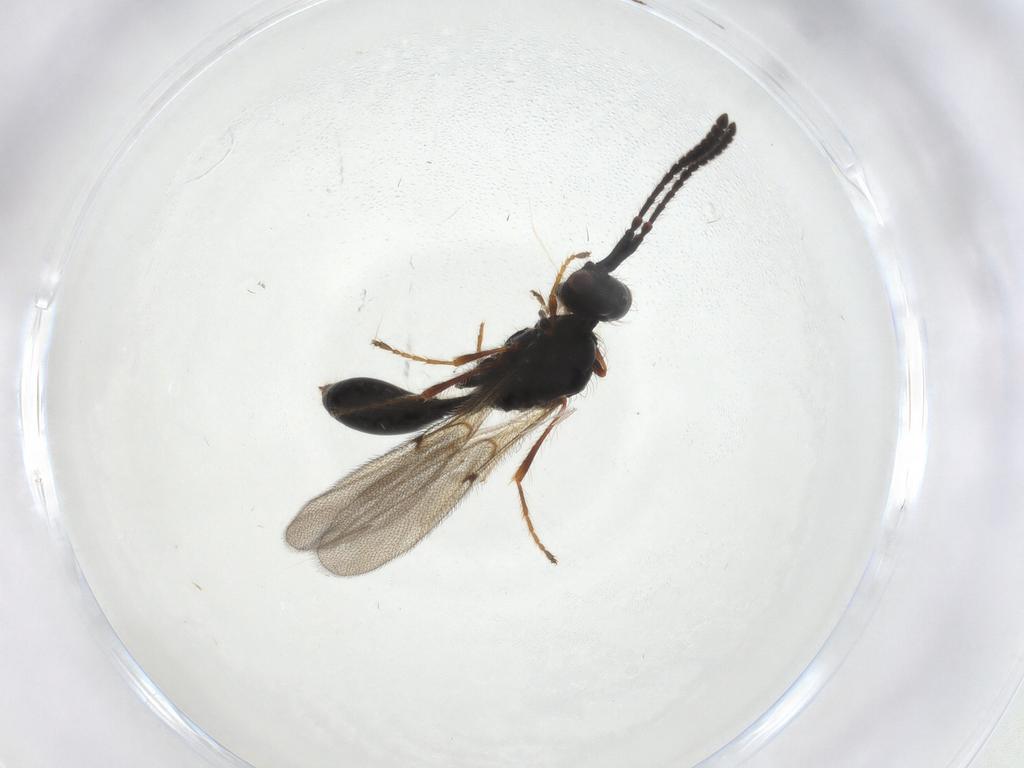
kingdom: Animalia
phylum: Arthropoda
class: Insecta
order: Hymenoptera
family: Diapriidae
